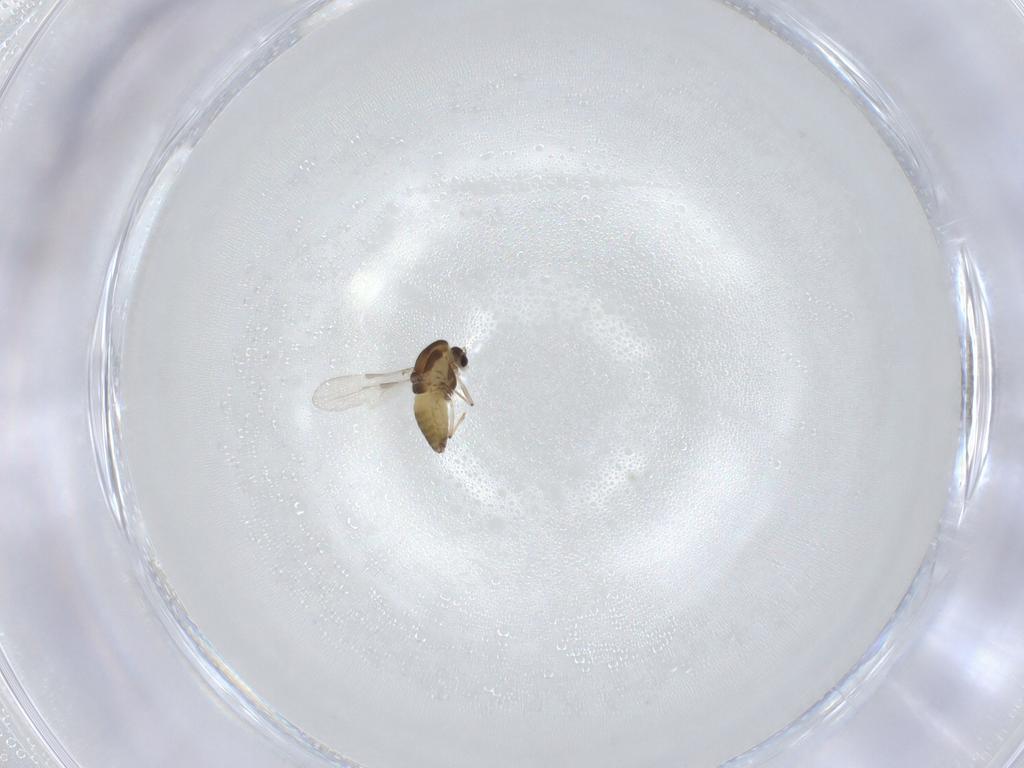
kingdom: Animalia
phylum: Arthropoda
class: Insecta
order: Diptera
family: Chironomidae
